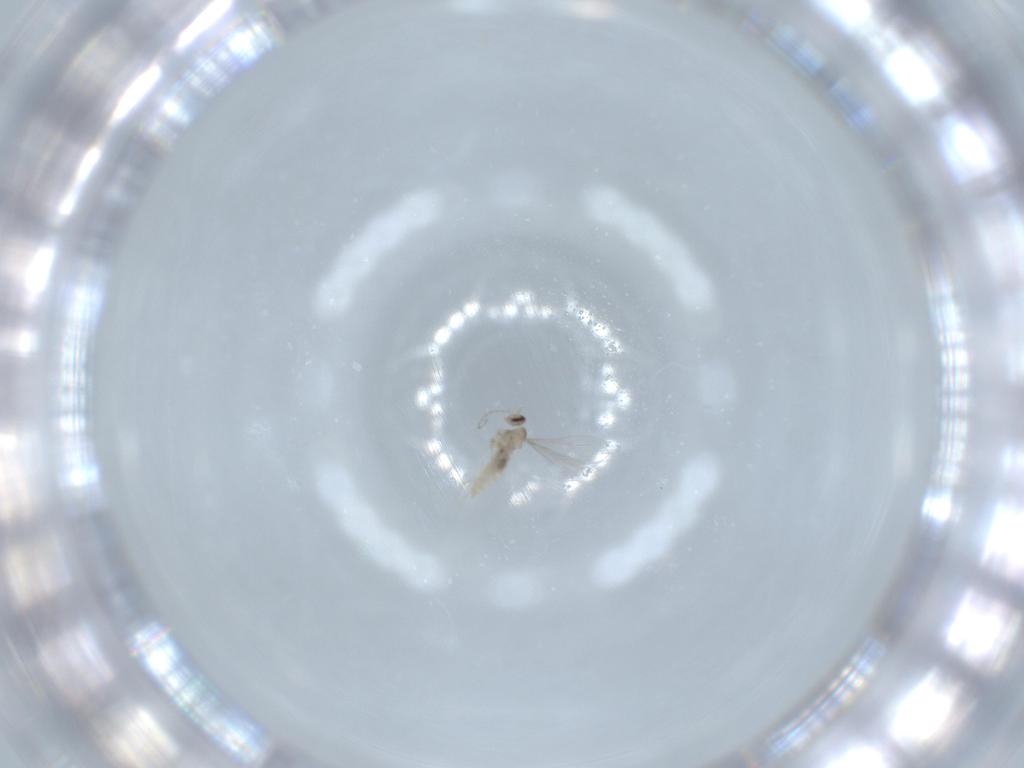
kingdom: Animalia
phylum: Arthropoda
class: Insecta
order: Diptera
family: Cecidomyiidae
